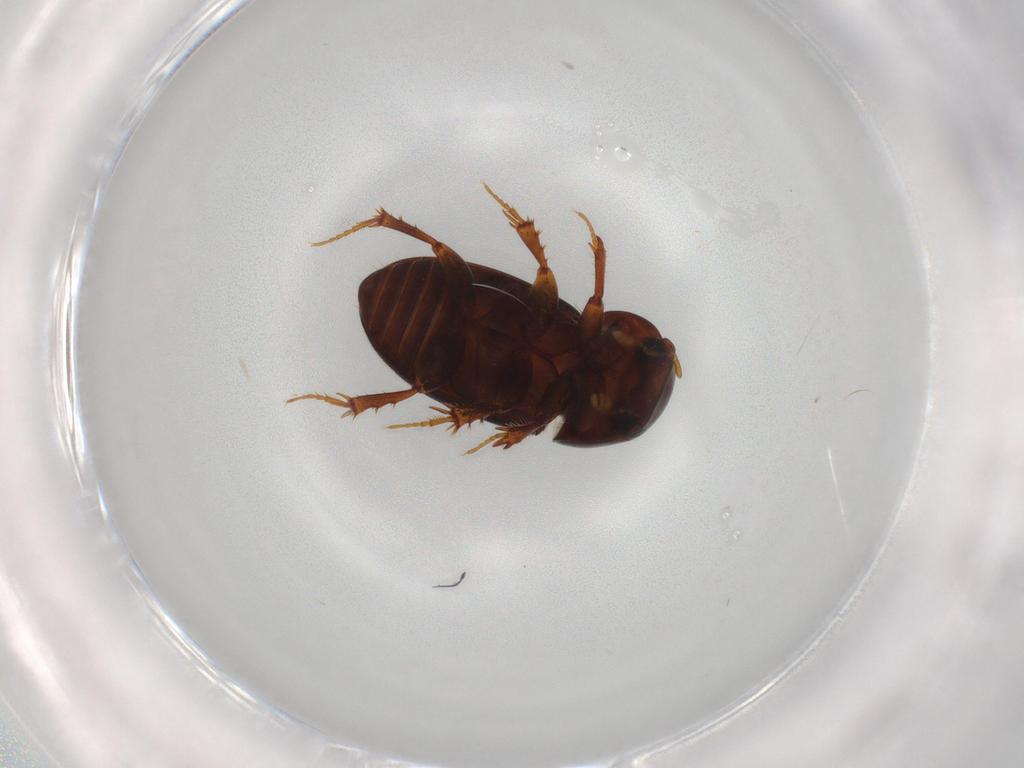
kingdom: Animalia
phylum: Arthropoda
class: Insecta
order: Coleoptera
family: Scarabaeidae
